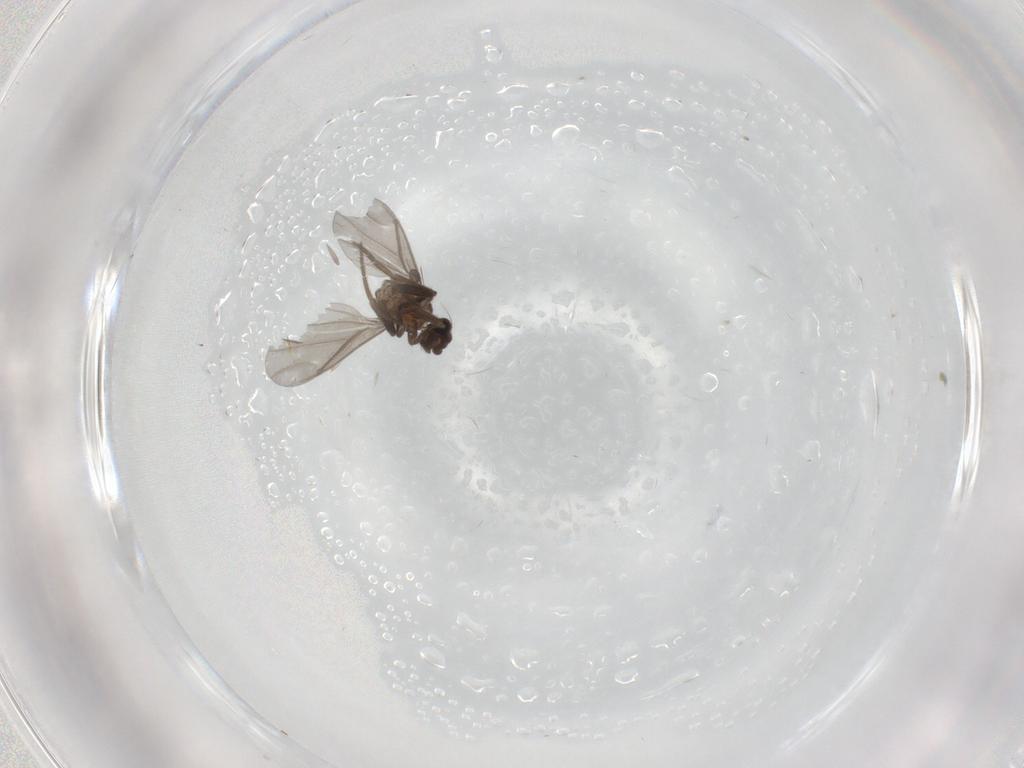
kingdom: Animalia
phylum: Arthropoda
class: Insecta
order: Diptera
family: Phoridae
